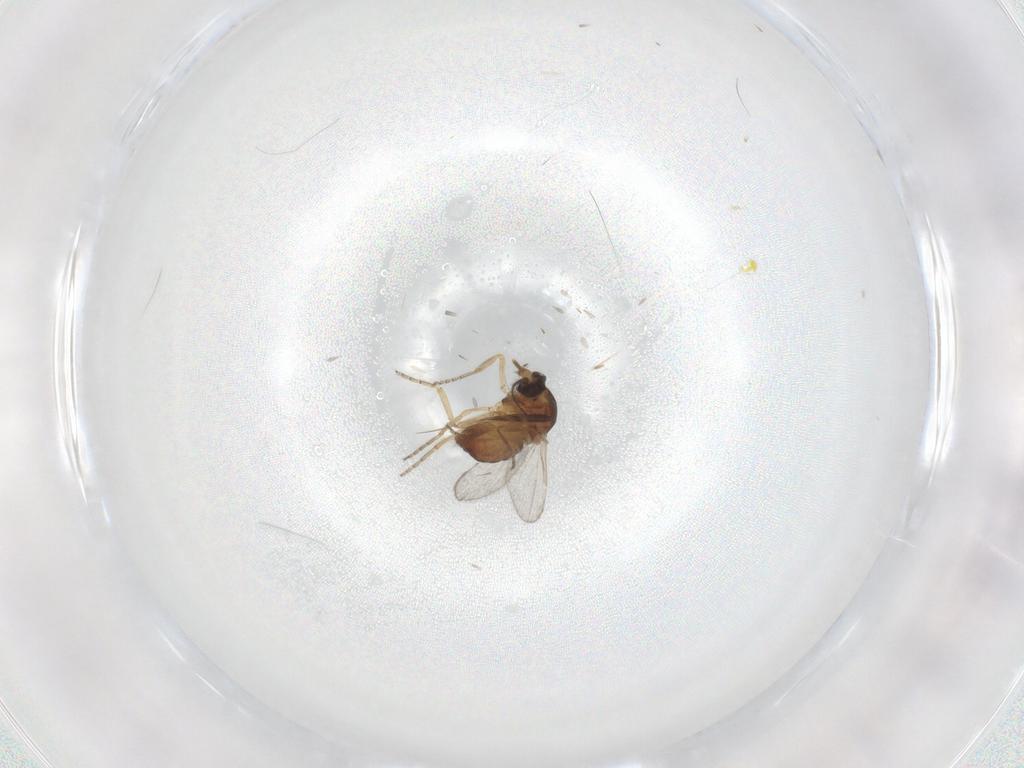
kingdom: Animalia
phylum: Arthropoda
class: Insecta
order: Diptera
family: Ceratopogonidae
